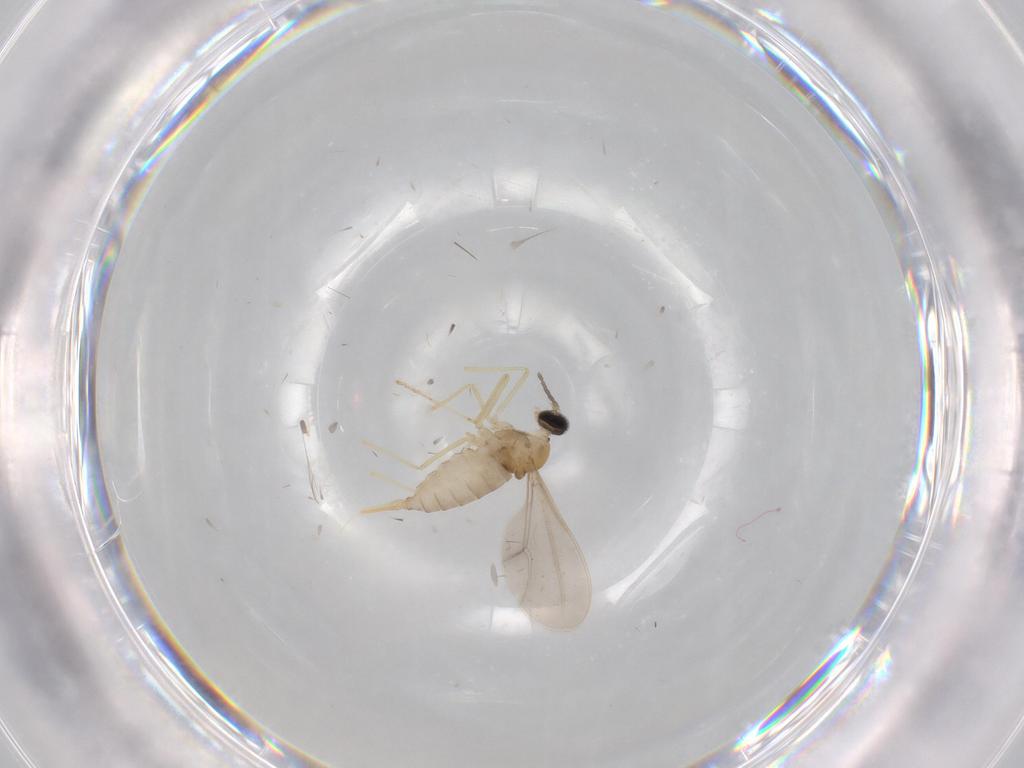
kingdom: Animalia
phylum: Arthropoda
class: Insecta
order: Diptera
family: Cecidomyiidae
